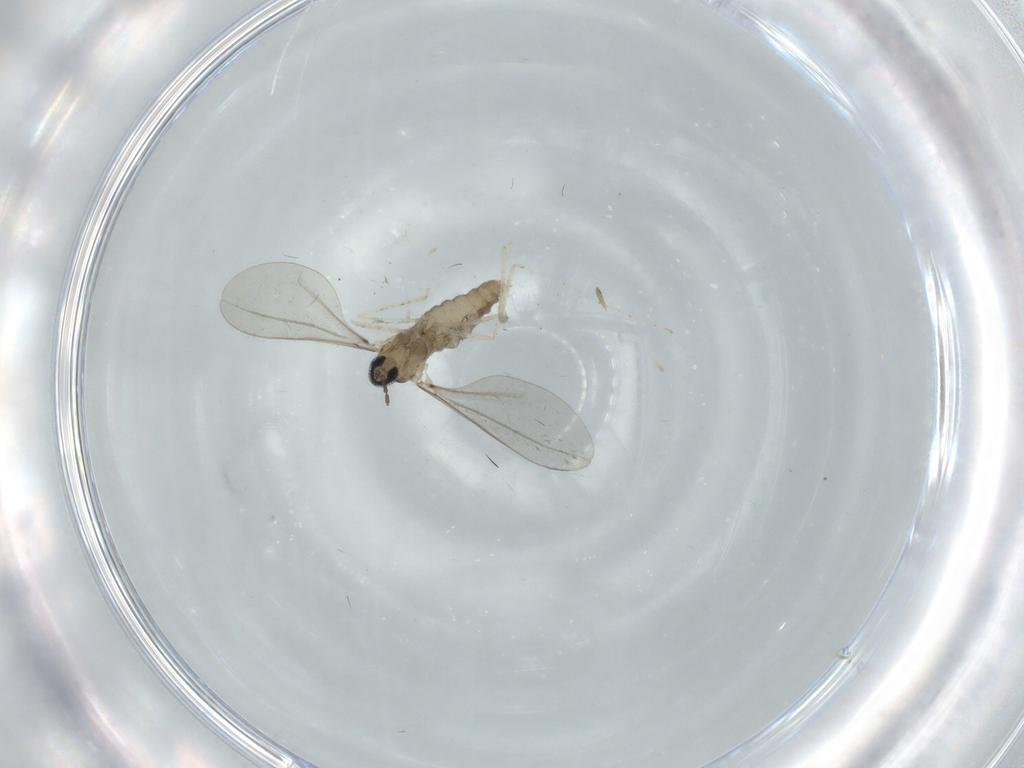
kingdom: Animalia
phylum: Arthropoda
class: Insecta
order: Diptera
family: Cecidomyiidae
